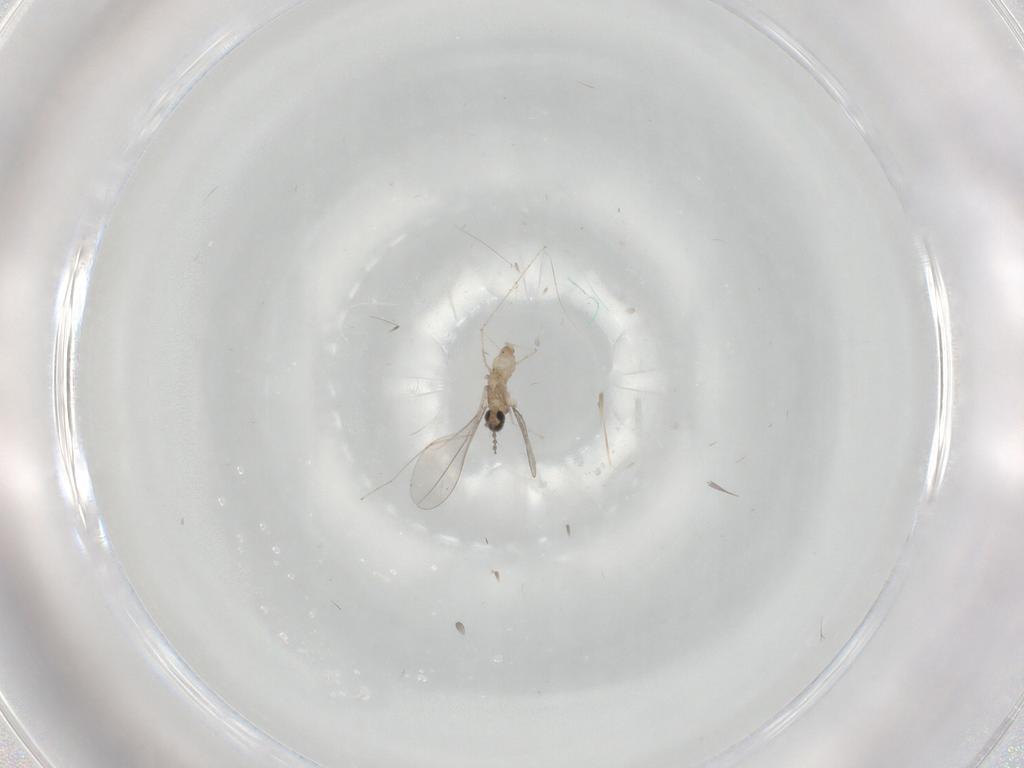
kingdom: Animalia
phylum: Arthropoda
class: Insecta
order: Diptera
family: Cecidomyiidae
